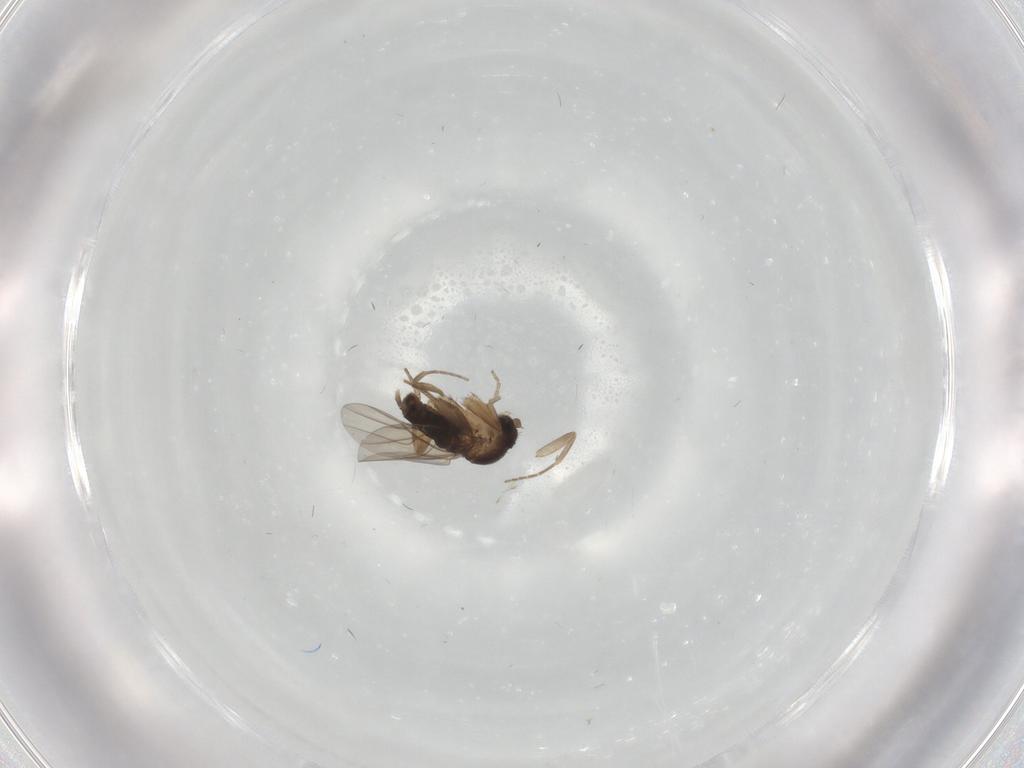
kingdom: Animalia
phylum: Arthropoda
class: Insecta
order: Diptera
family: Phoridae
